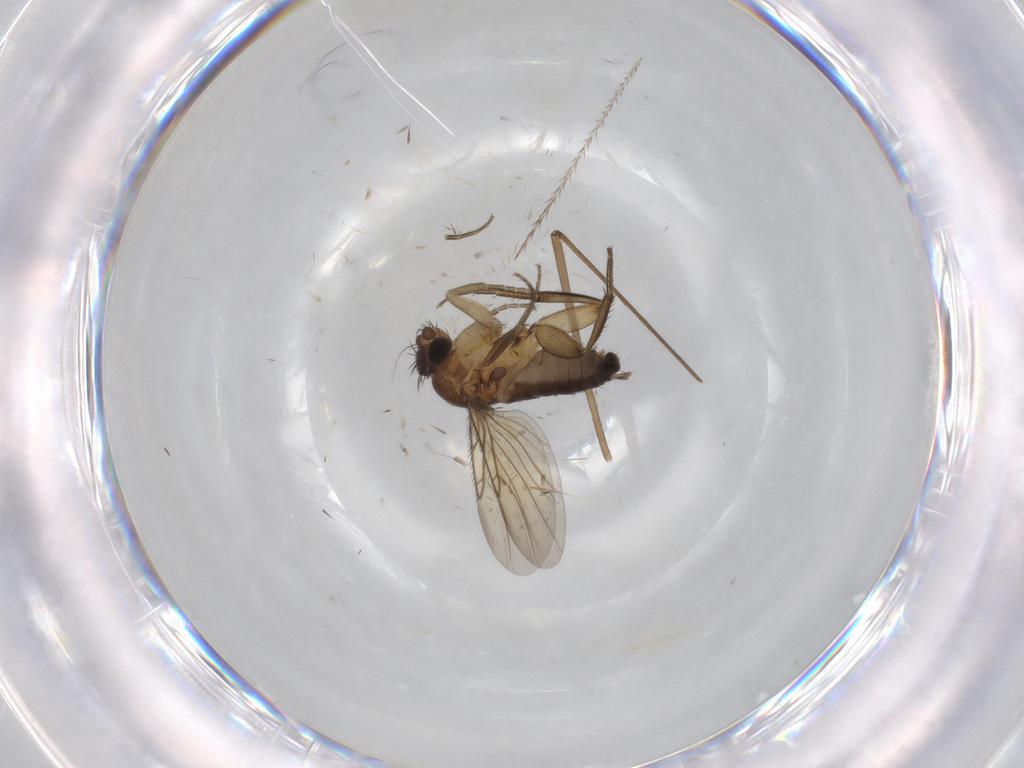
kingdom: Animalia
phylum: Arthropoda
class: Insecta
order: Diptera
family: Phoridae
